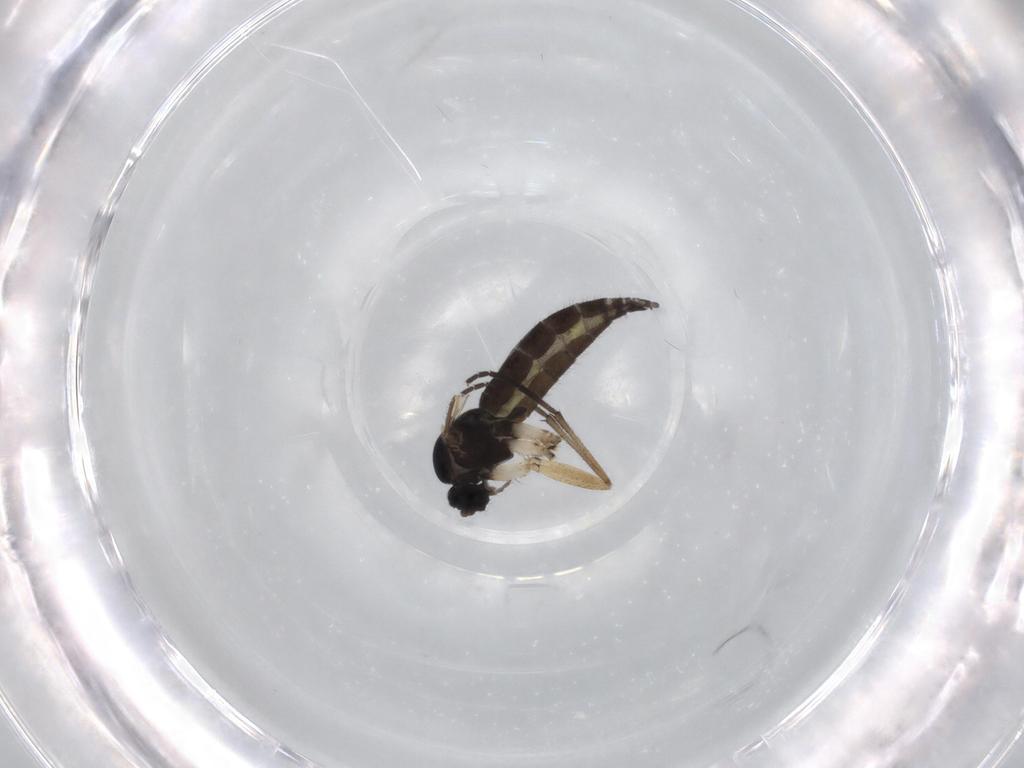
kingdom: Animalia
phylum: Arthropoda
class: Insecta
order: Diptera
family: Sciaridae
